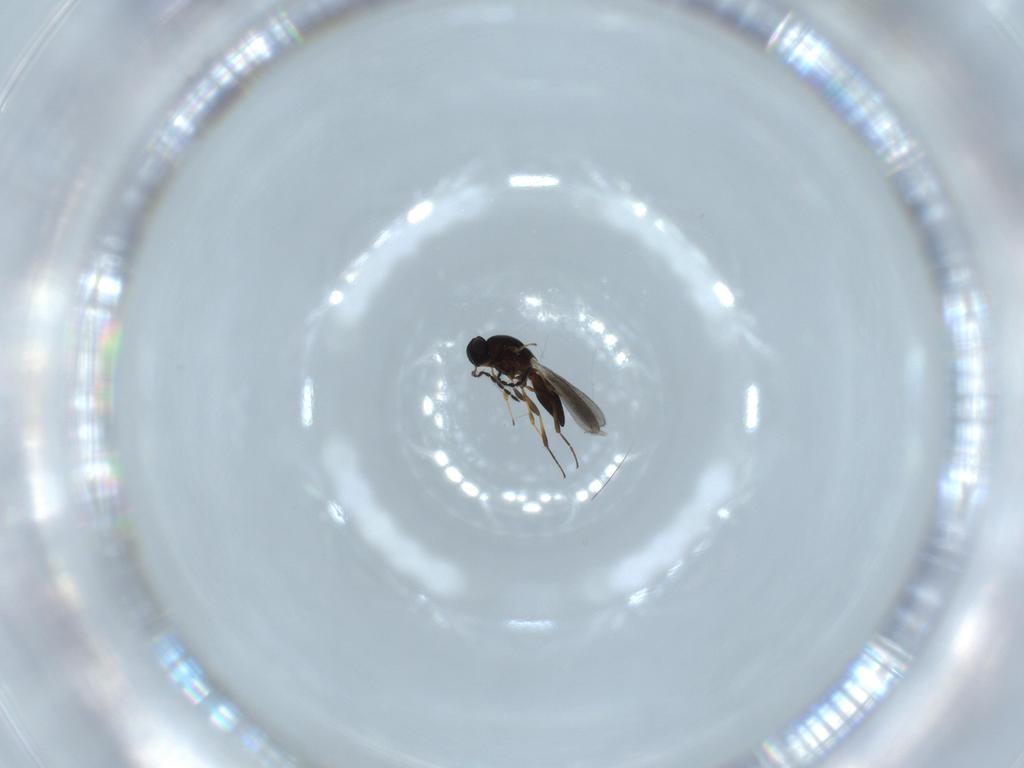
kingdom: Animalia
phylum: Arthropoda
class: Insecta
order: Hymenoptera
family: Platygastridae
